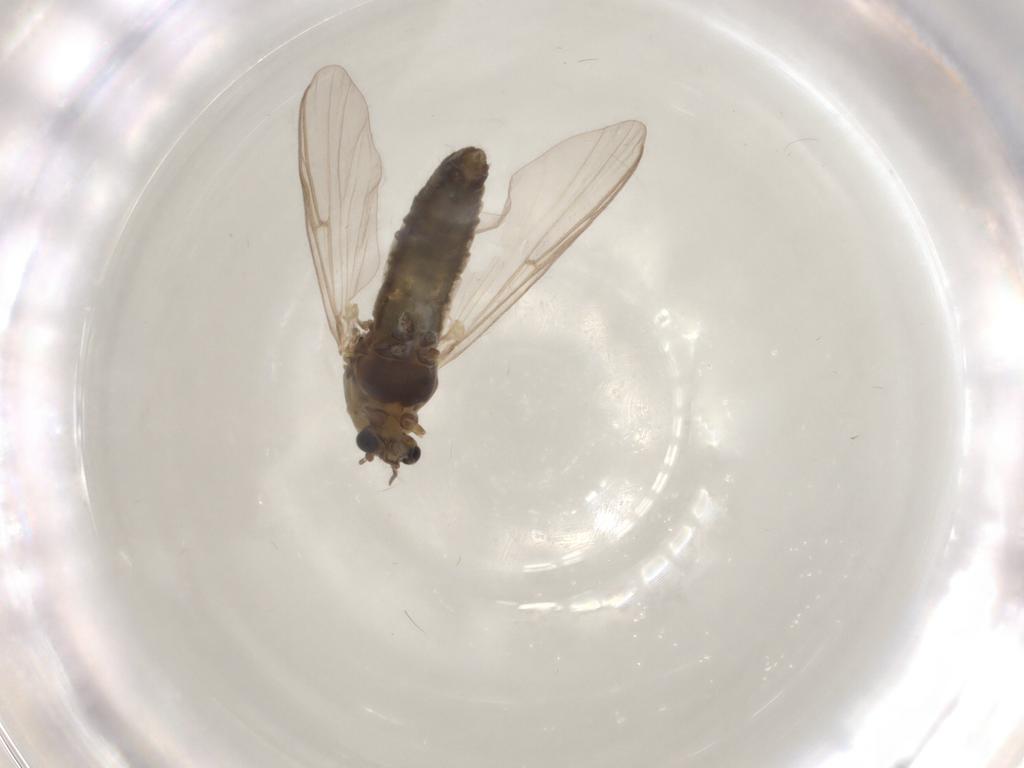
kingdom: Animalia
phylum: Arthropoda
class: Insecta
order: Diptera
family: Chironomidae
